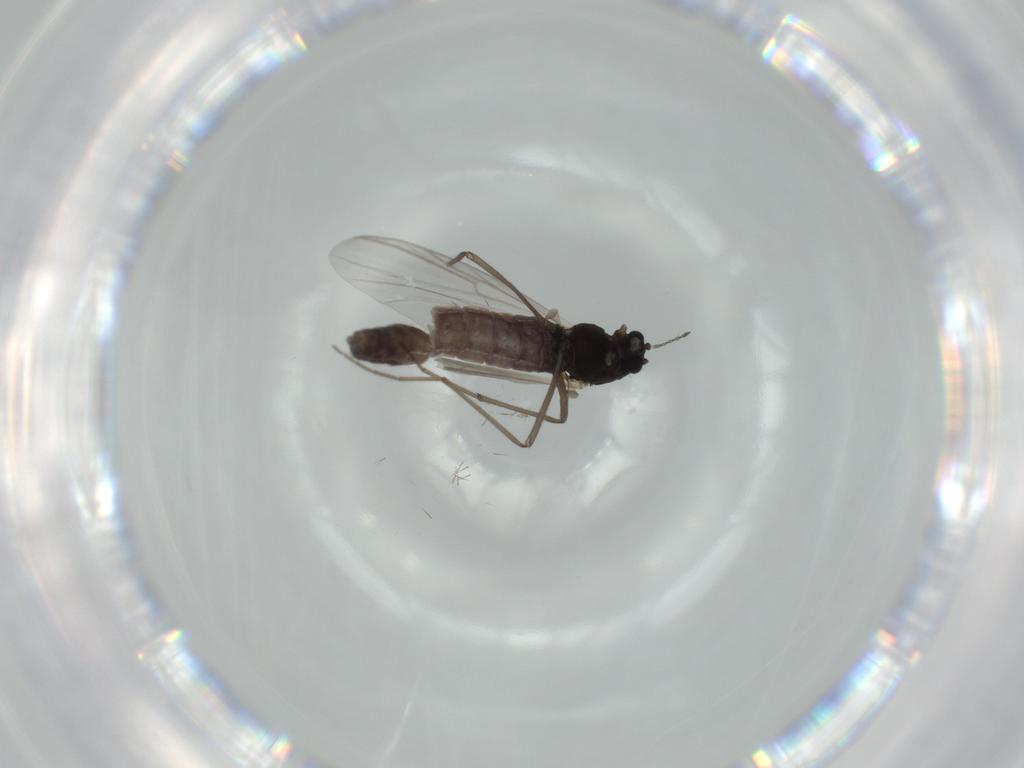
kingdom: Animalia
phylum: Arthropoda
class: Insecta
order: Diptera
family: Chironomidae
